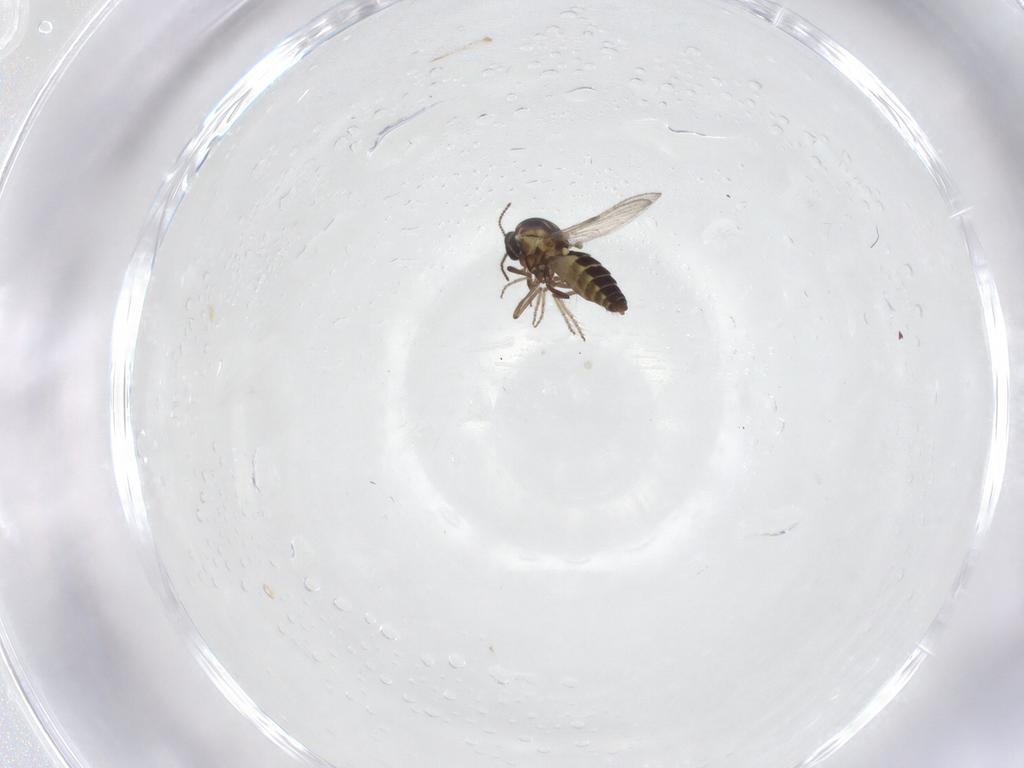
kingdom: Animalia
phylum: Arthropoda
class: Insecta
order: Diptera
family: Ceratopogonidae
